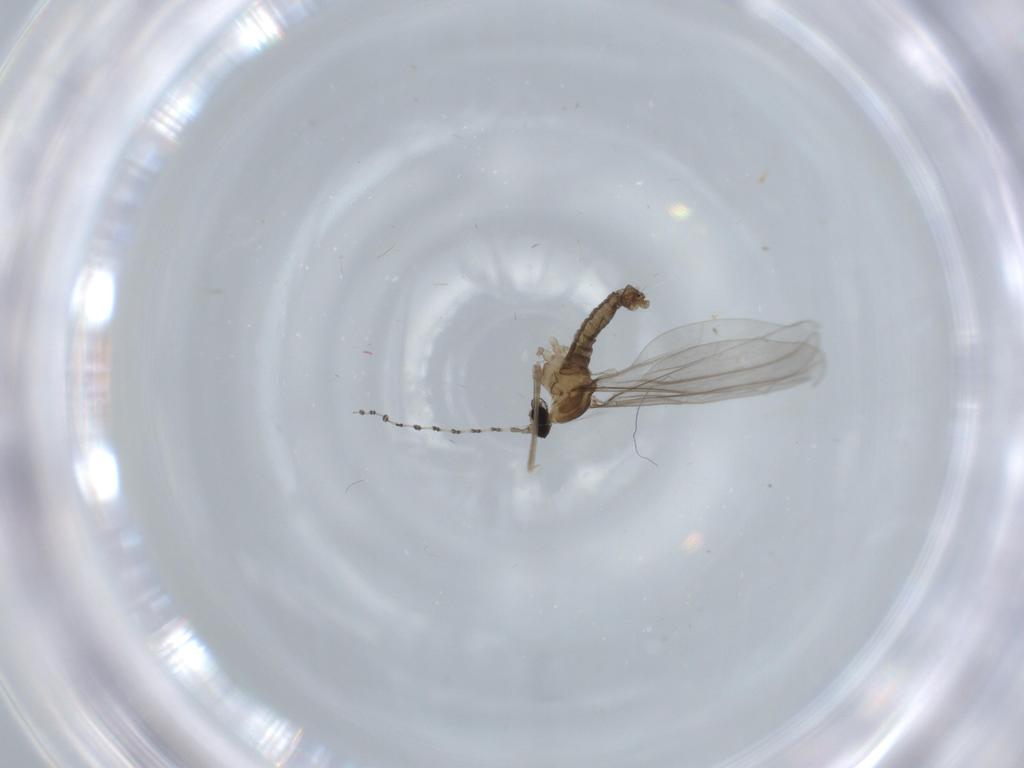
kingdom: Animalia
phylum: Arthropoda
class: Insecta
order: Diptera
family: Cecidomyiidae
